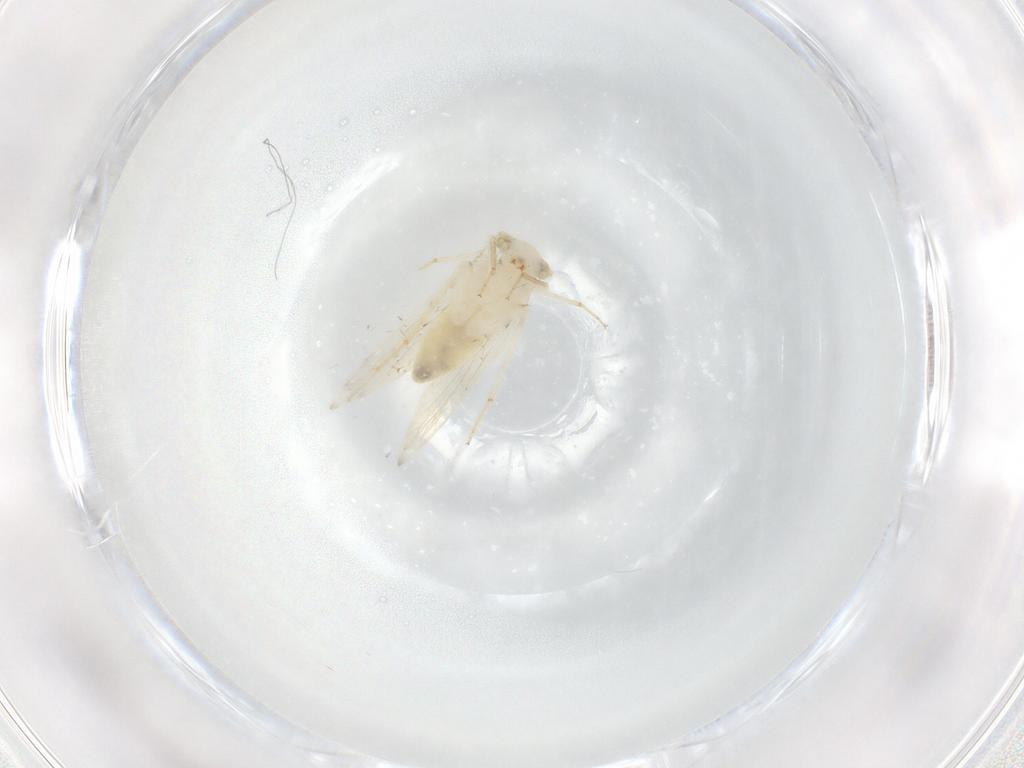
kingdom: Animalia
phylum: Arthropoda
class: Insecta
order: Psocodea
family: Lepidopsocidae
